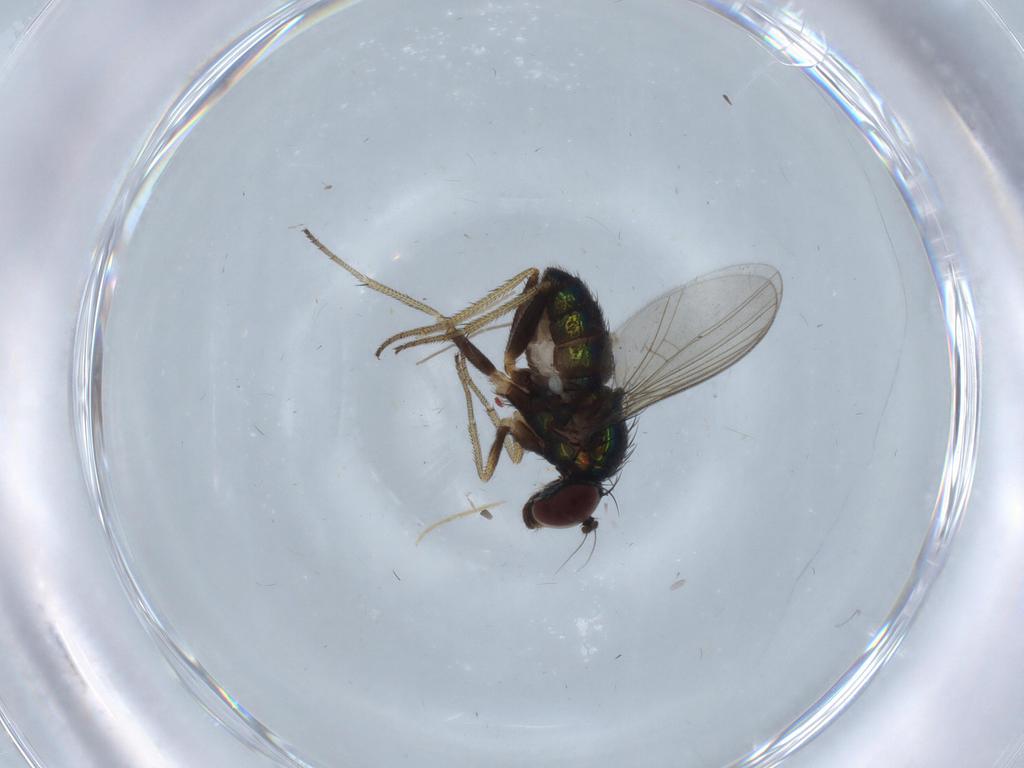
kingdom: Animalia
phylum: Arthropoda
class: Insecta
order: Diptera
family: Dolichopodidae
